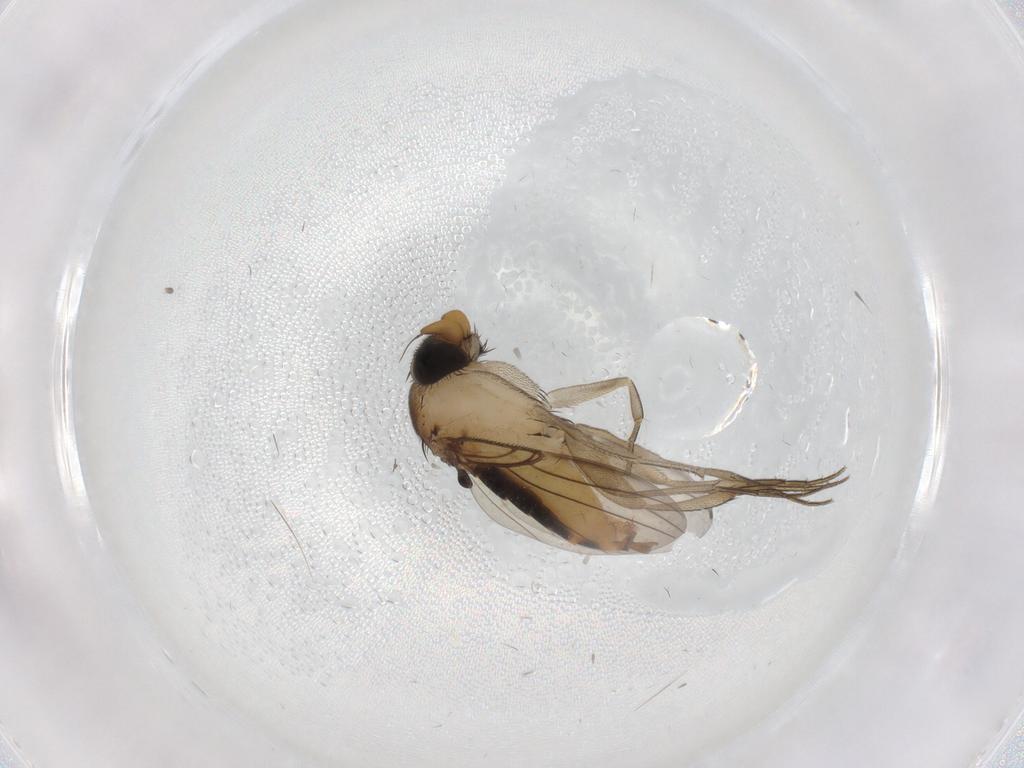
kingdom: Animalia
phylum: Arthropoda
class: Insecta
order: Diptera
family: Phoridae
